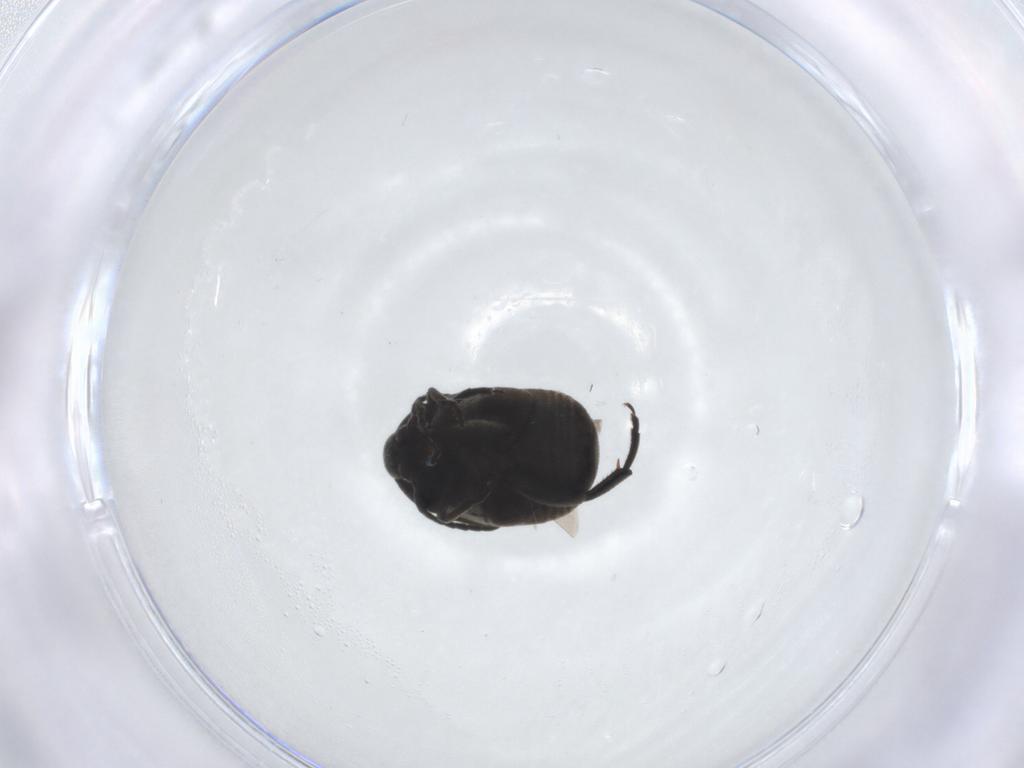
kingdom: Animalia
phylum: Arthropoda
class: Insecta
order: Coleoptera
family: Chrysomelidae
